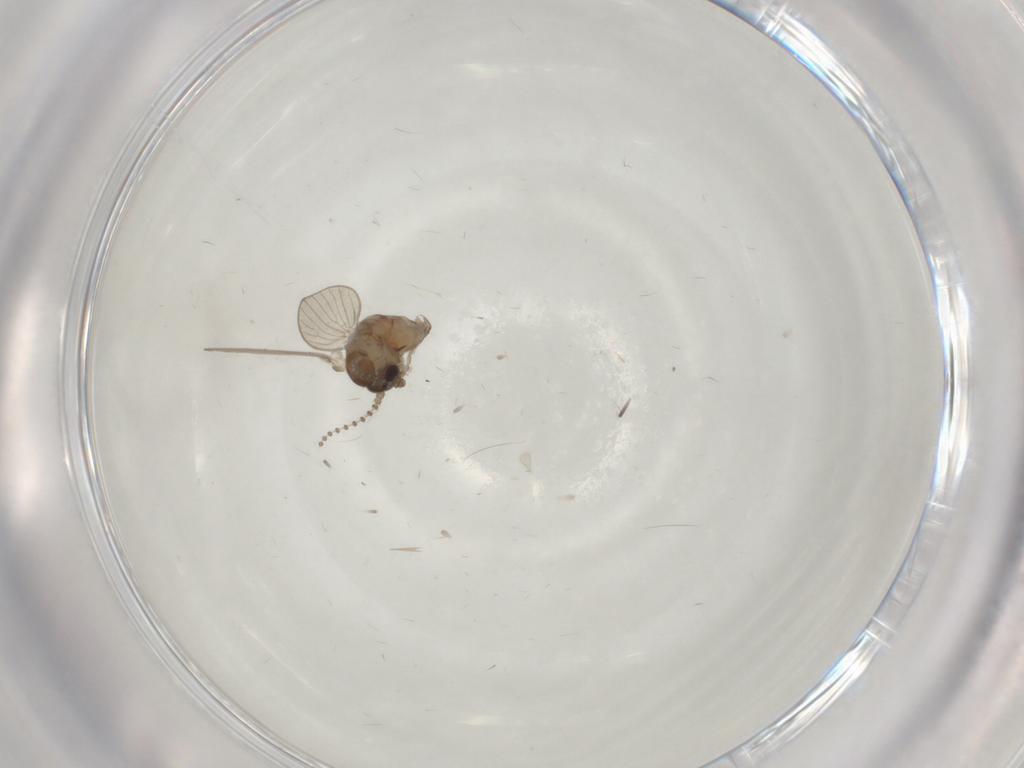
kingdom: Animalia
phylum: Arthropoda
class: Insecta
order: Diptera
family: Psychodidae
